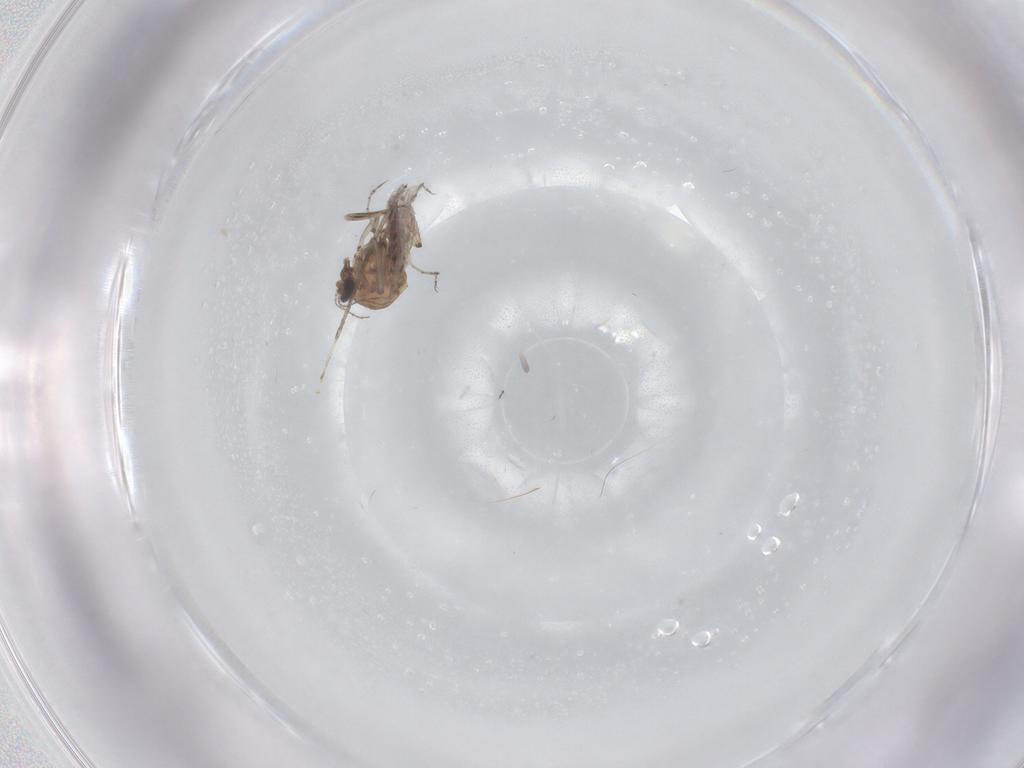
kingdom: Animalia
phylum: Arthropoda
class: Insecta
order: Diptera
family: Ceratopogonidae
